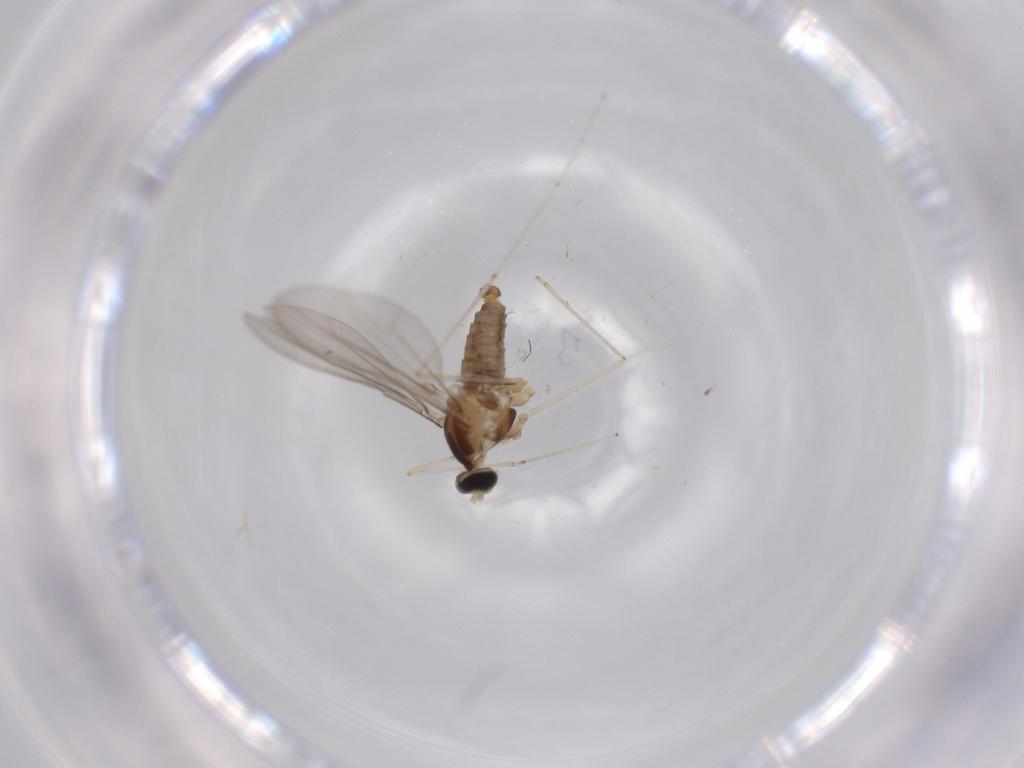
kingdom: Animalia
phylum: Arthropoda
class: Insecta
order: Diptera
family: Cecidomyiidae
